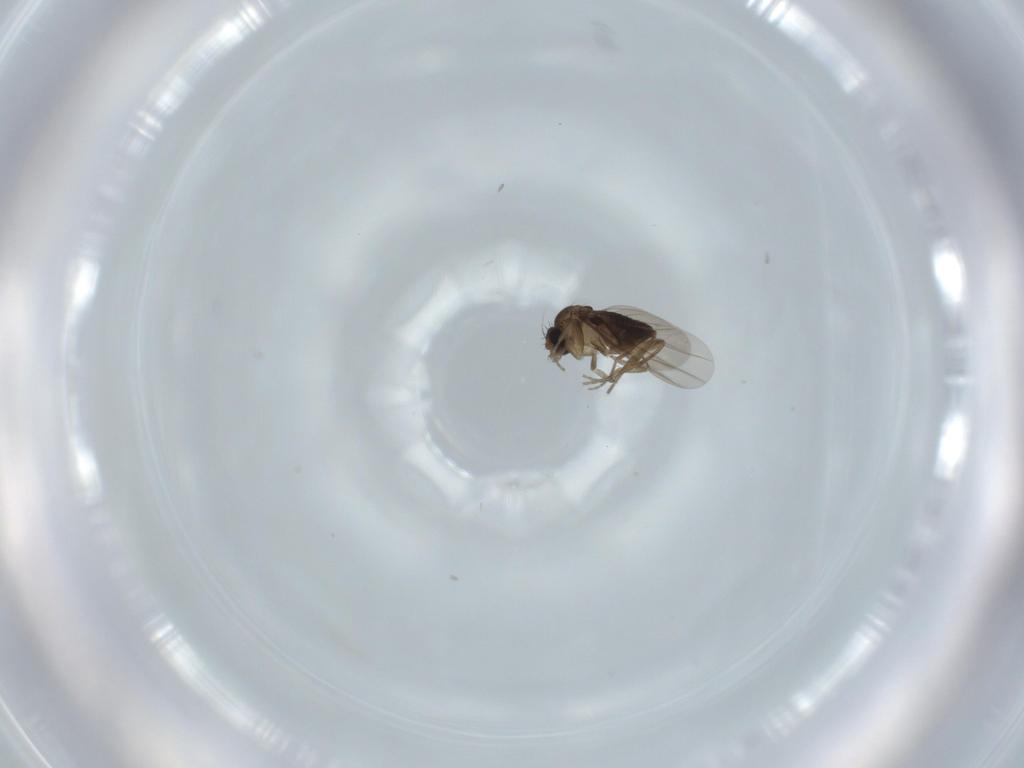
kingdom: Animalia
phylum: Arthropoda
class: Insecta
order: Diptera
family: Phoridae
